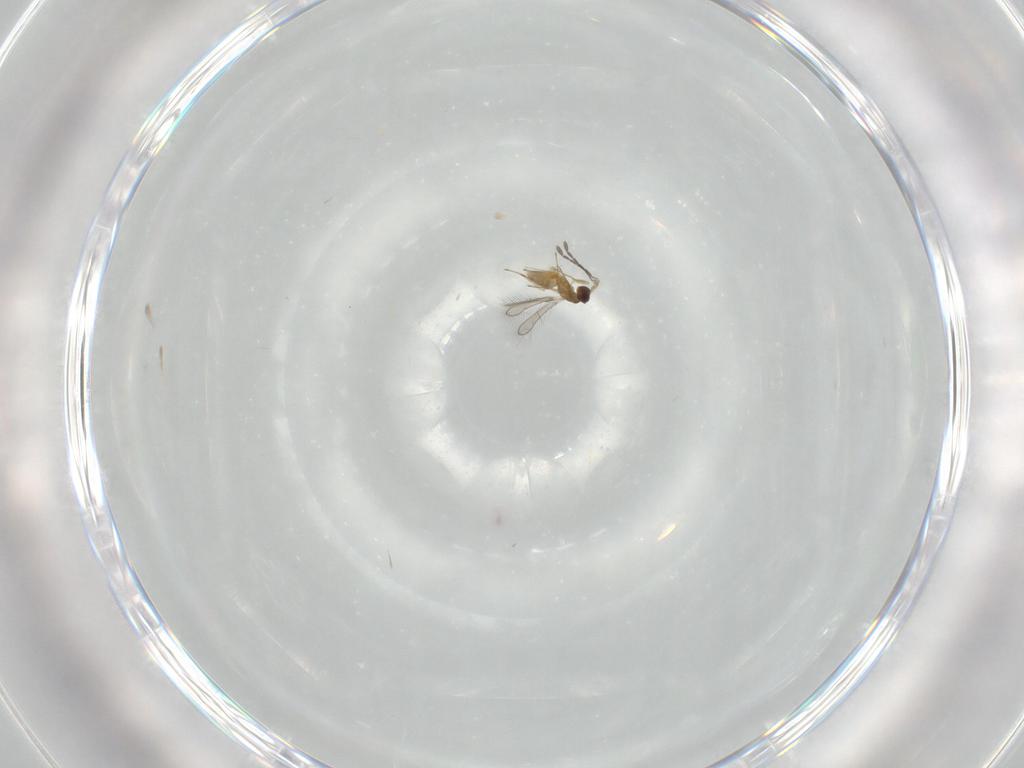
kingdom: Animalia
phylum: Arthropoda
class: Insecta
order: Hymenoptera
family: Mymaridae
